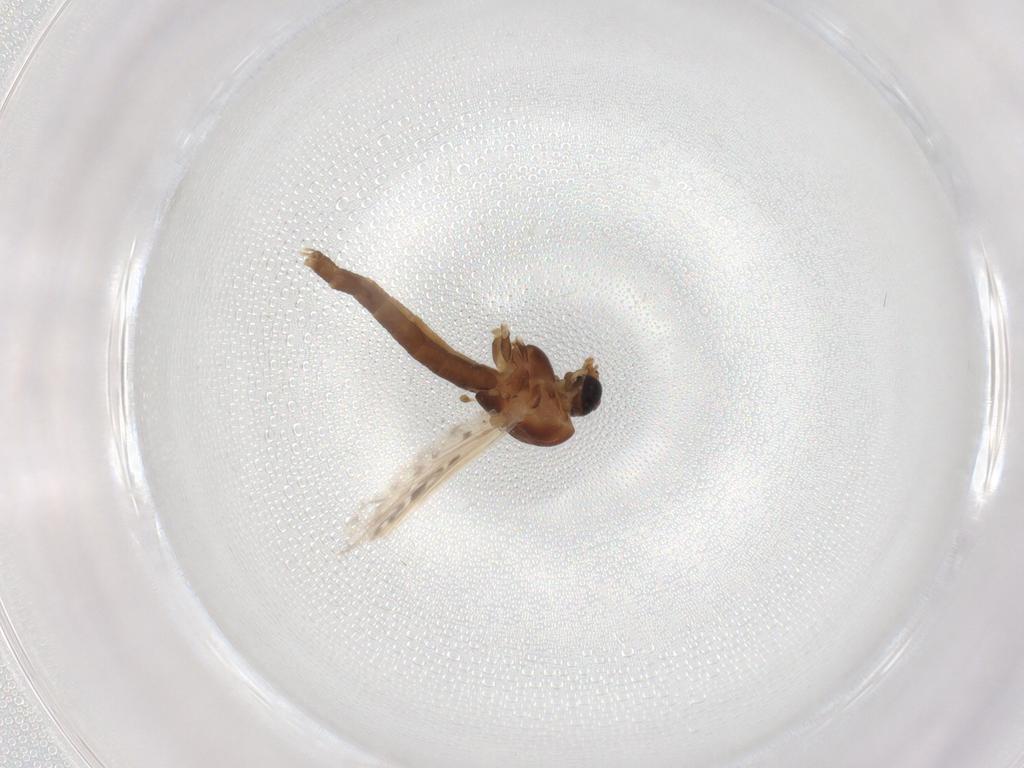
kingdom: Animalia
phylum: Arthropoda
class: Insecta
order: Diptera
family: Chironomidae
